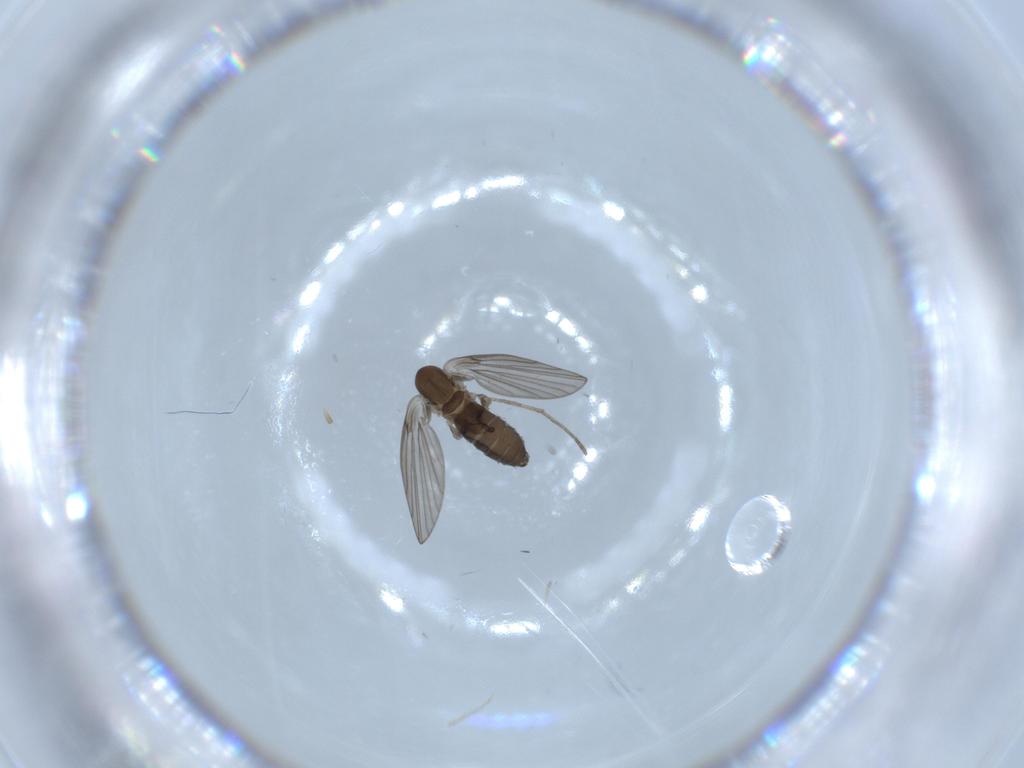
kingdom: Animalia
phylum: Arthropoda
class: Insecta
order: Diptera
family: Psychodidae
